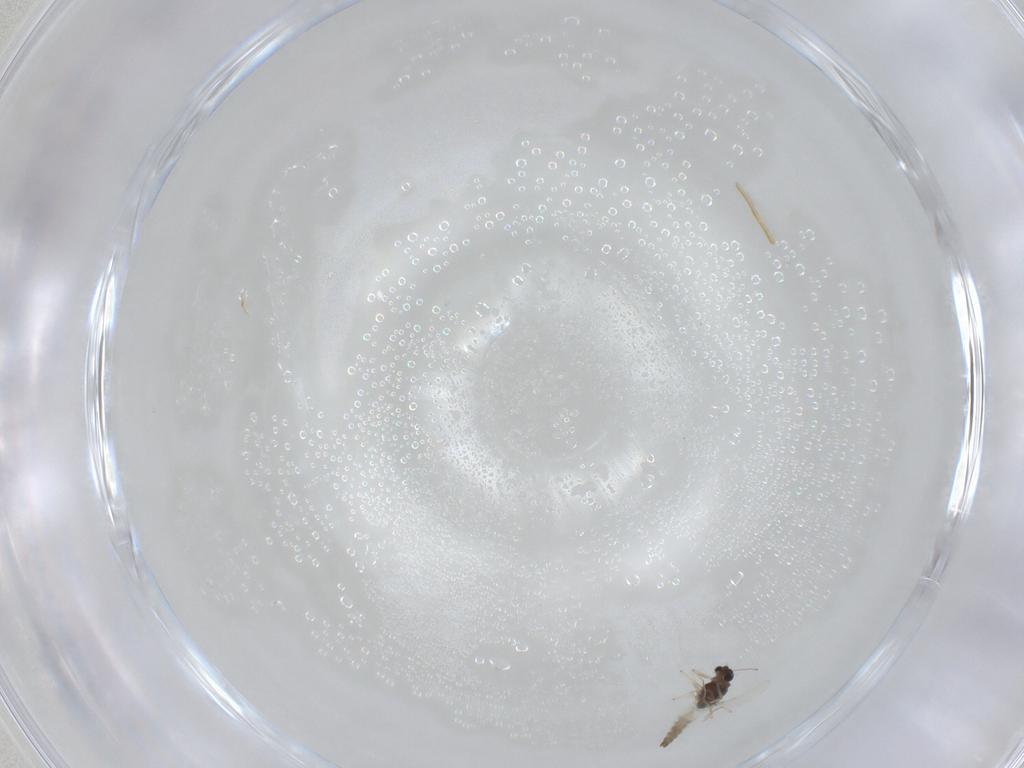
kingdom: Animalia
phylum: Arthropoda
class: Insecta
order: Diptera
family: Chironomidae
